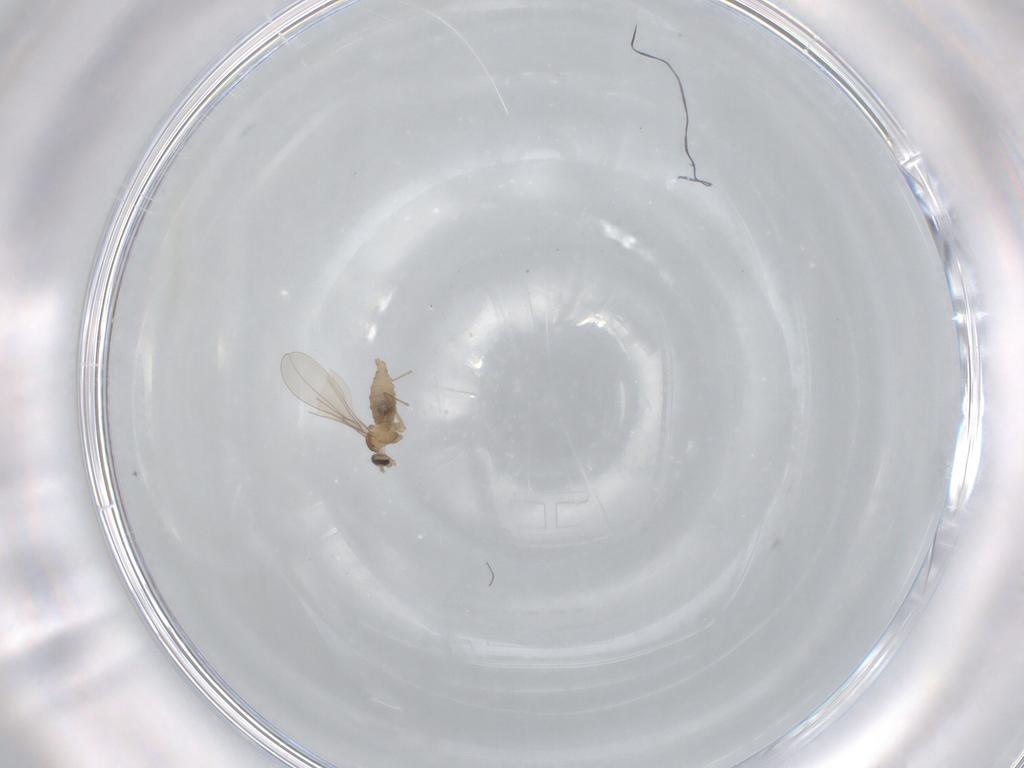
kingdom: Animalia
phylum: Arthropoda
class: Insecta
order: Diptera
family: Cecidomyiidae
